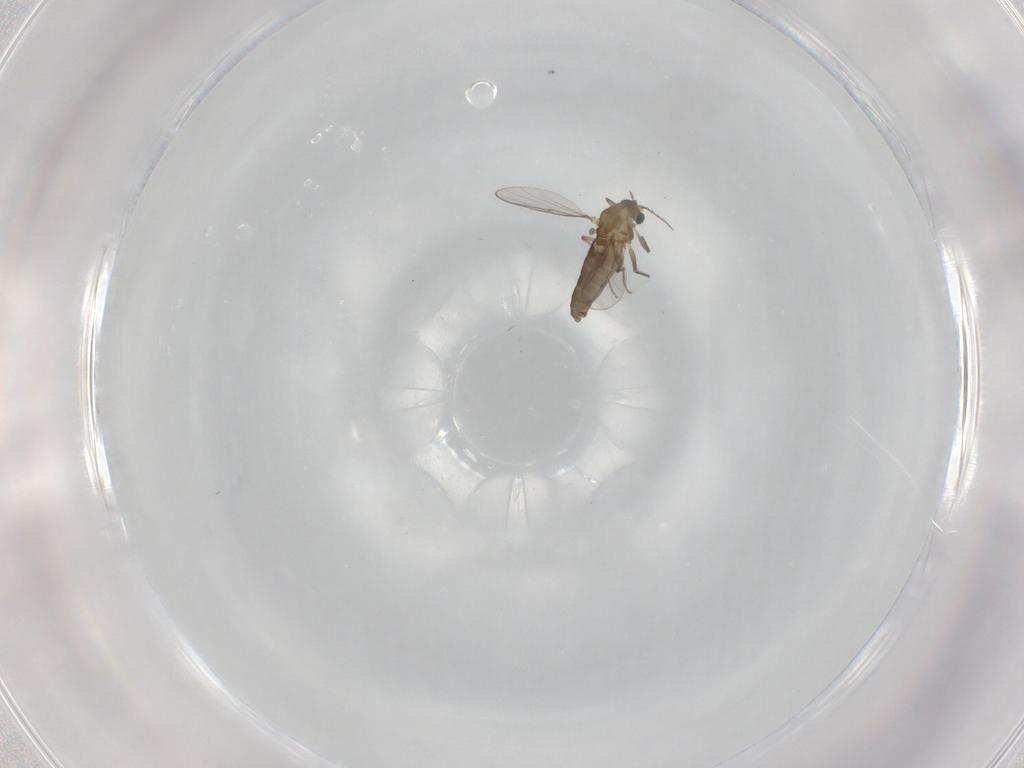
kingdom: Animalia
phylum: Arthropoda
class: Insecta
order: Diptera
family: Chironomidae
